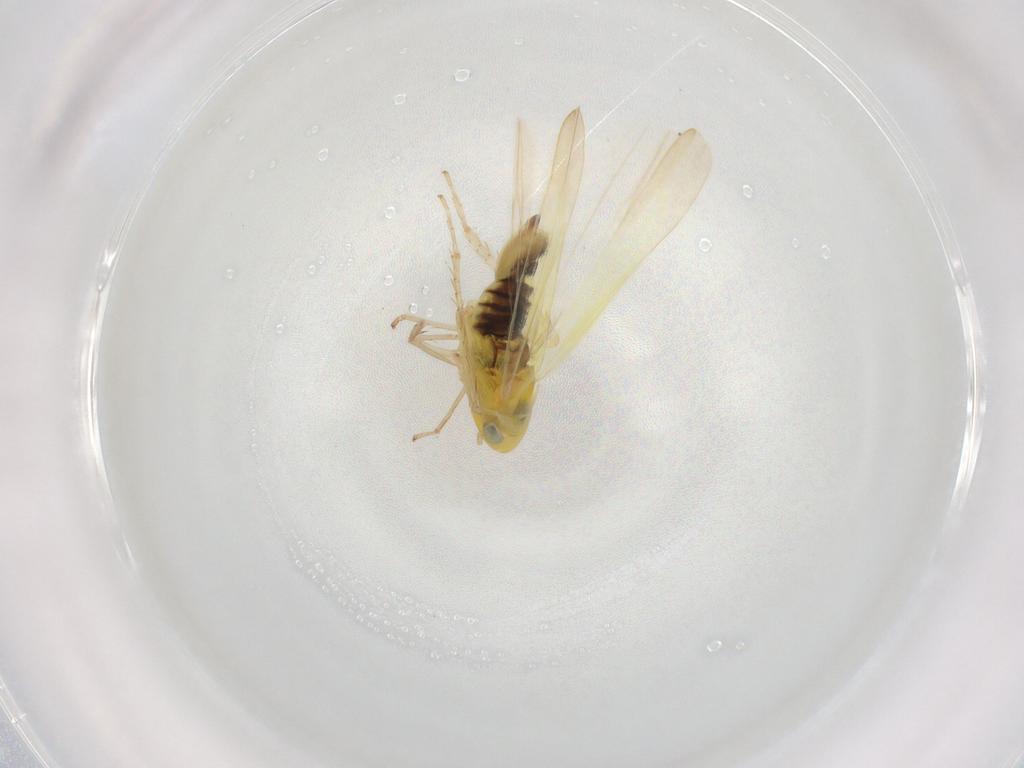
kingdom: Animalia
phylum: Arthropoda
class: Insecta
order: Hemiptera
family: Cicadellidae
